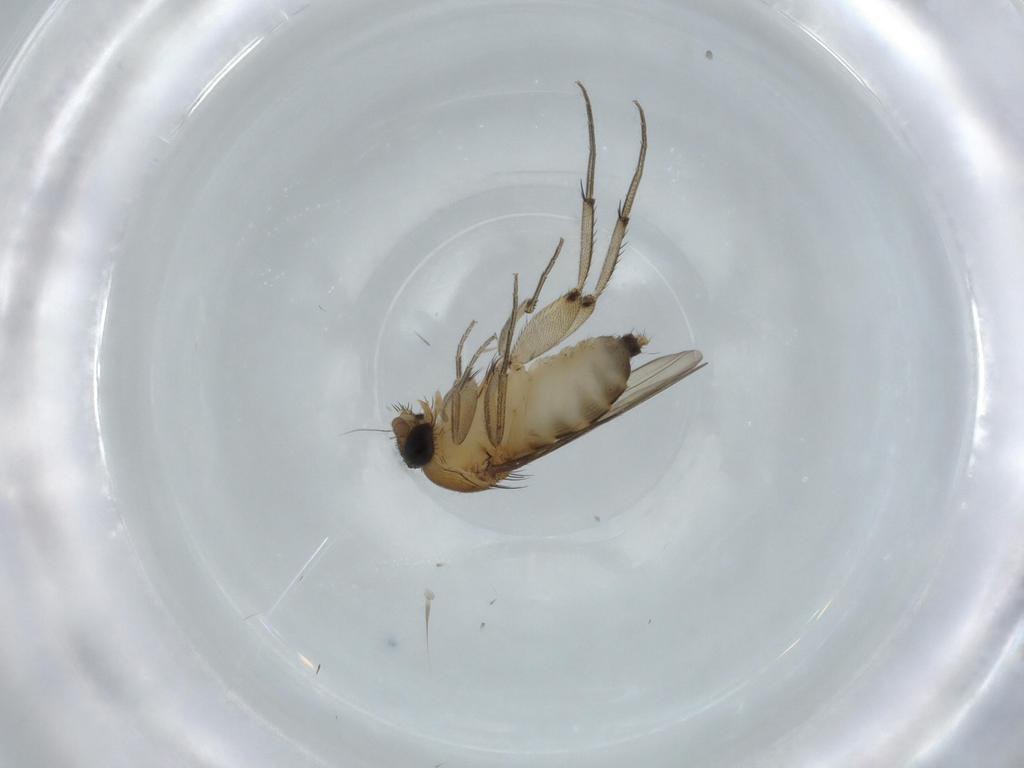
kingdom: Animalia
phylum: Arthropoda
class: Insecta
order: Diptera
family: Phoridae
